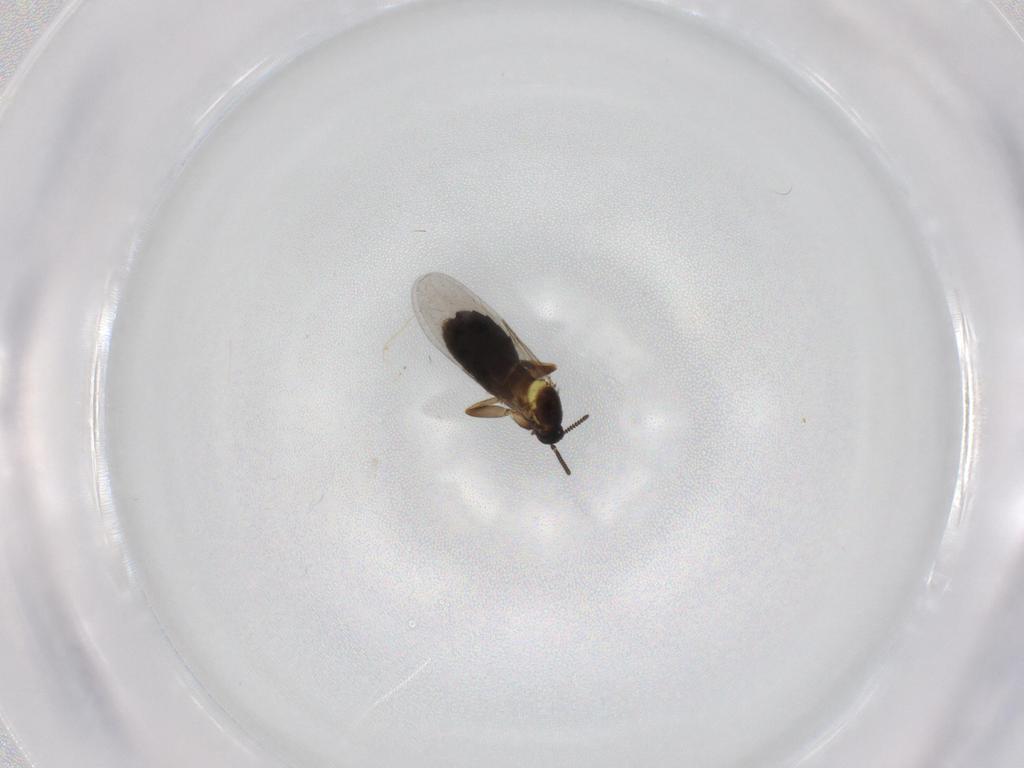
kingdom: Animalia
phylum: Arthropoda
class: Insecta
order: Diptera
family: Scatopsidae
